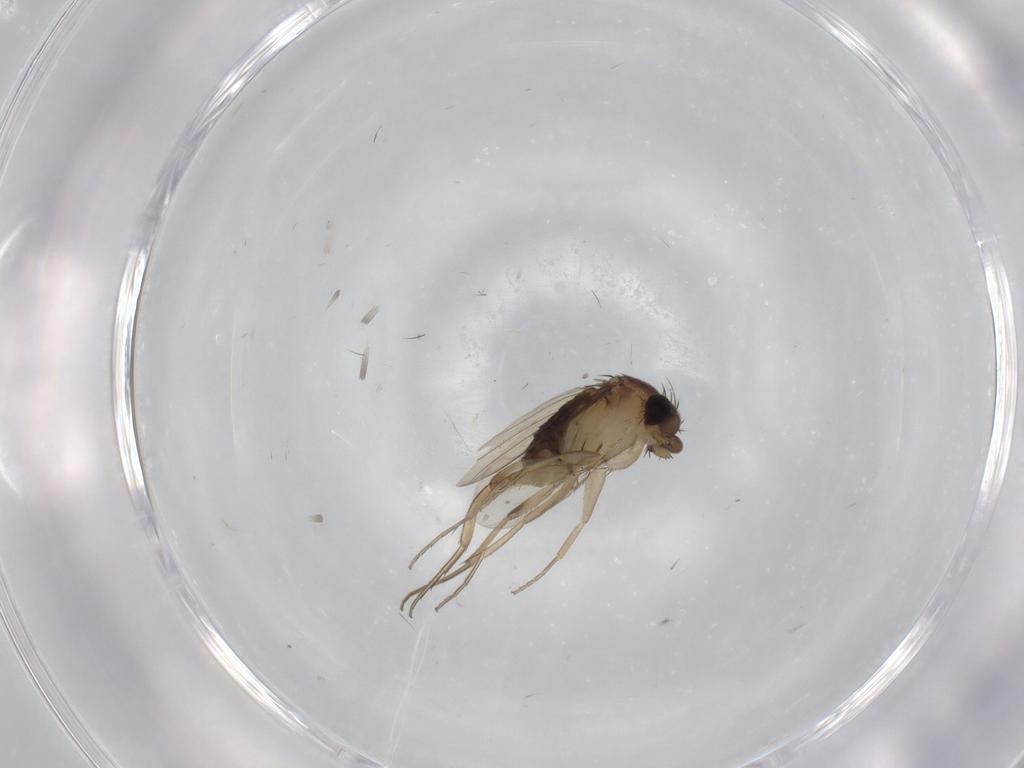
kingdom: Animalia
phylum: Arthropoda
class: Insecta
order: Diptera
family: Phoridae
